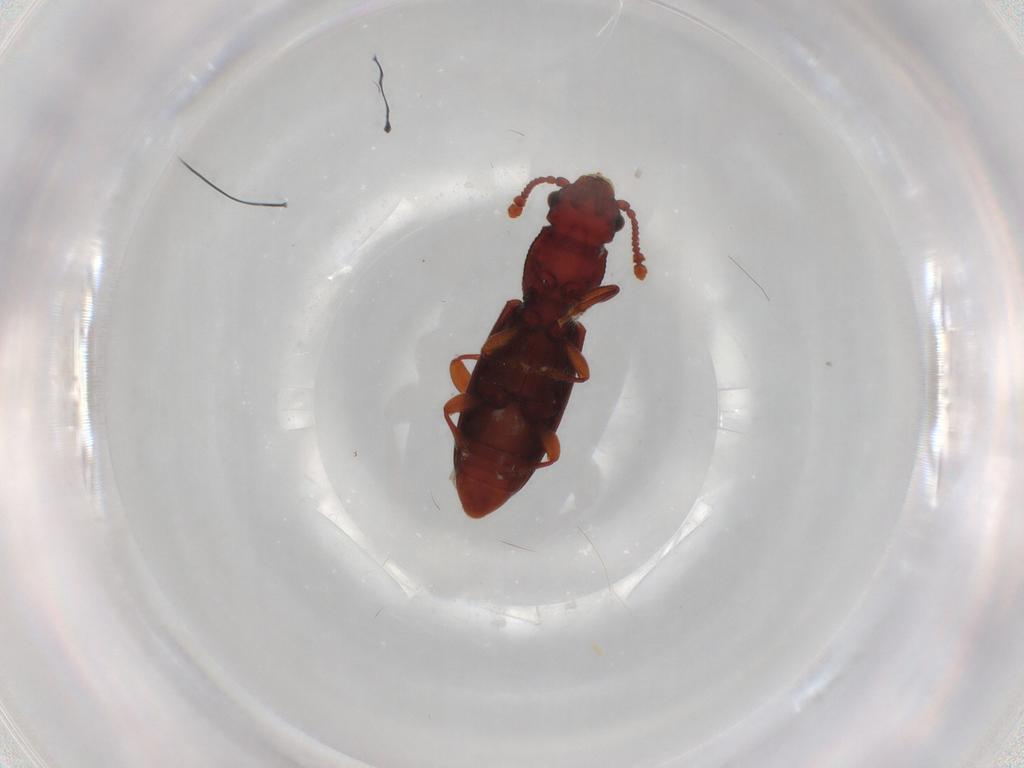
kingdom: Animalia
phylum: Arthropoda
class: Insecta
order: Coleoptera
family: Monotomidae
